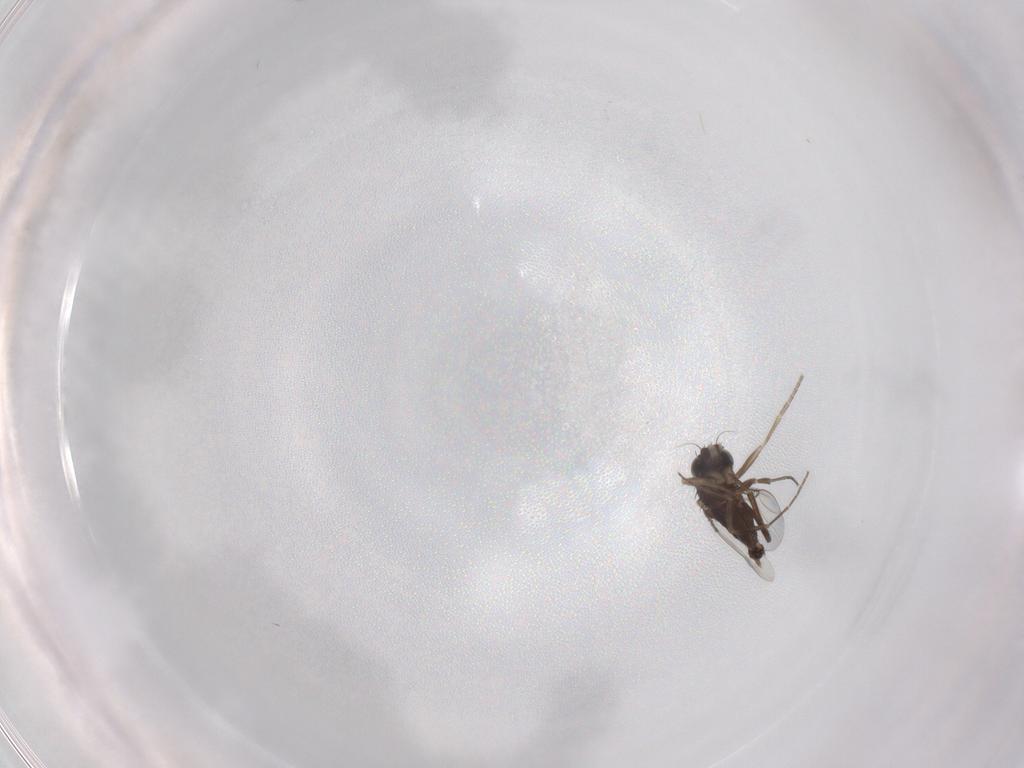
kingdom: Animalia
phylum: Arthropoda
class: Insecta
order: Diptera
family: Phoridae
